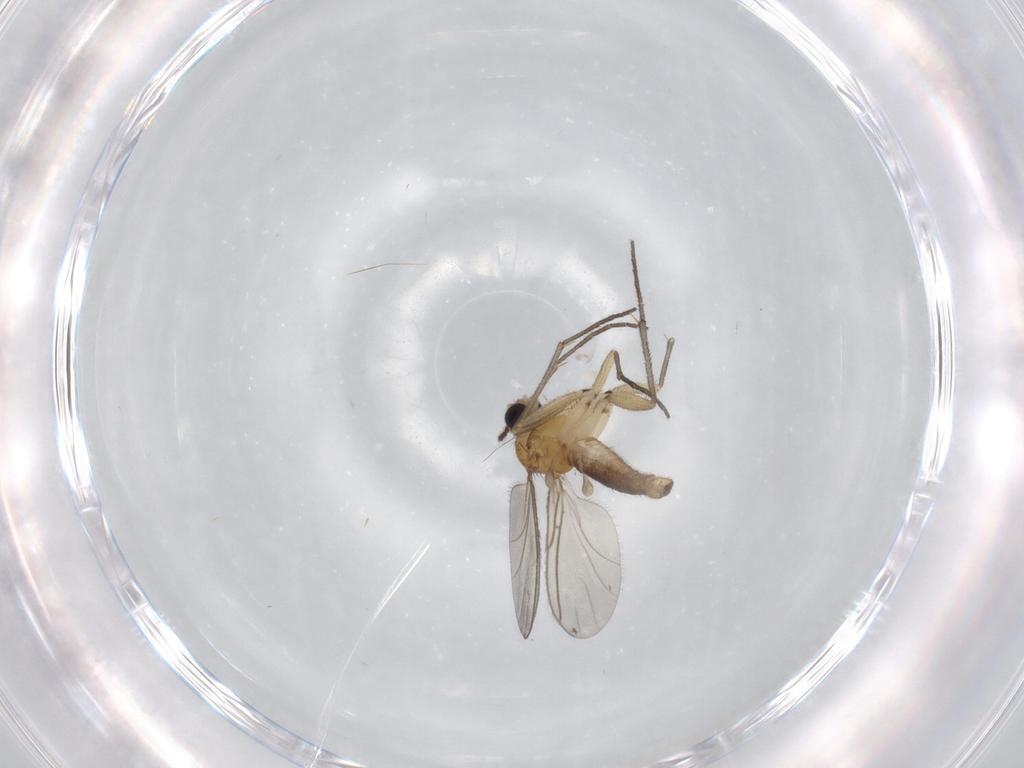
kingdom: Animalia
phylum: Arthropoda
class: Insecta
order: Diptera
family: Sciaridae
